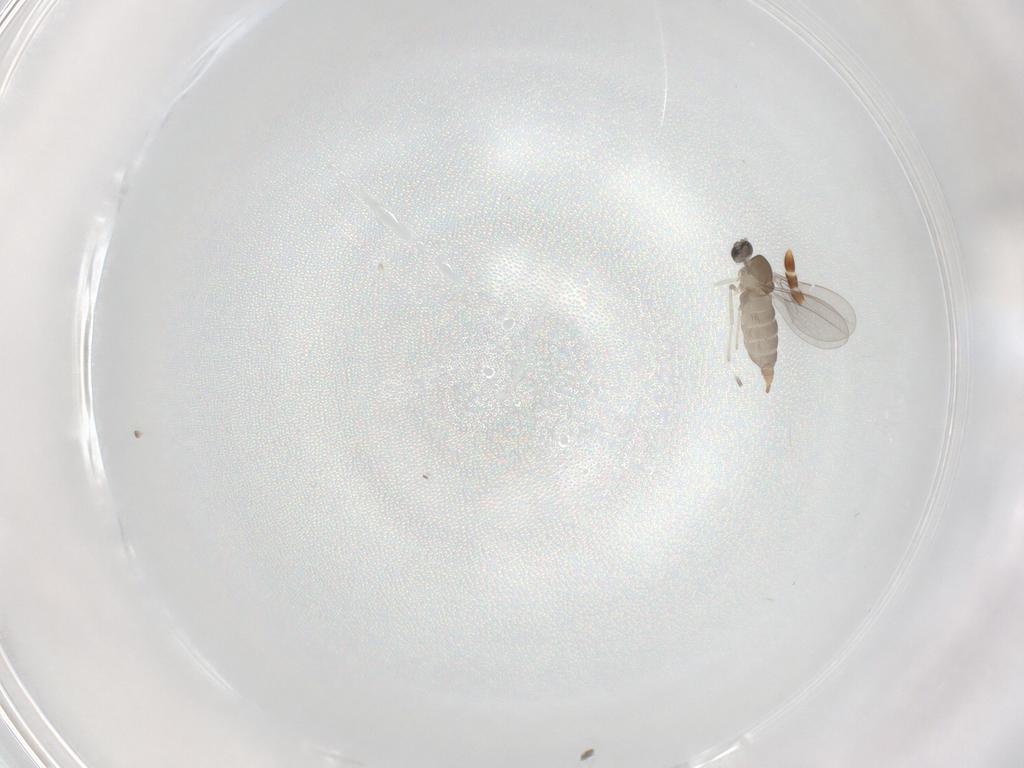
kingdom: Animalia
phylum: Arthropoda
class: Insecta
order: Diptera
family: Cecidomyiidae
